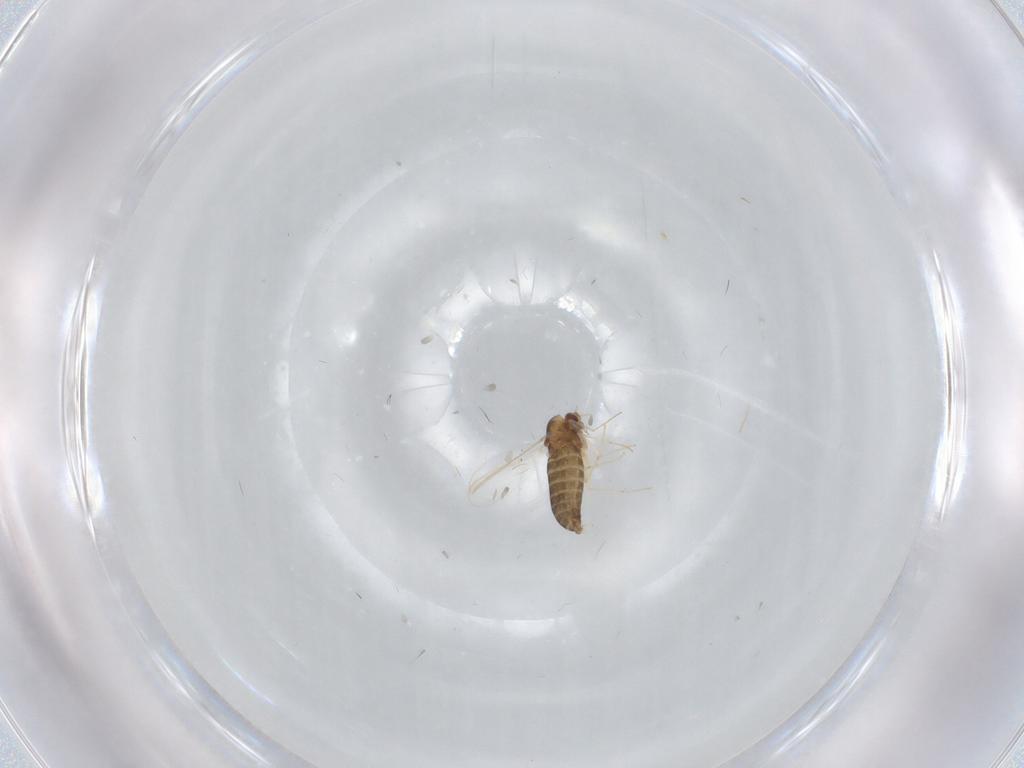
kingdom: Animalia
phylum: Arthropoda
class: Insecta
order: Diptera
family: Chironomidae
